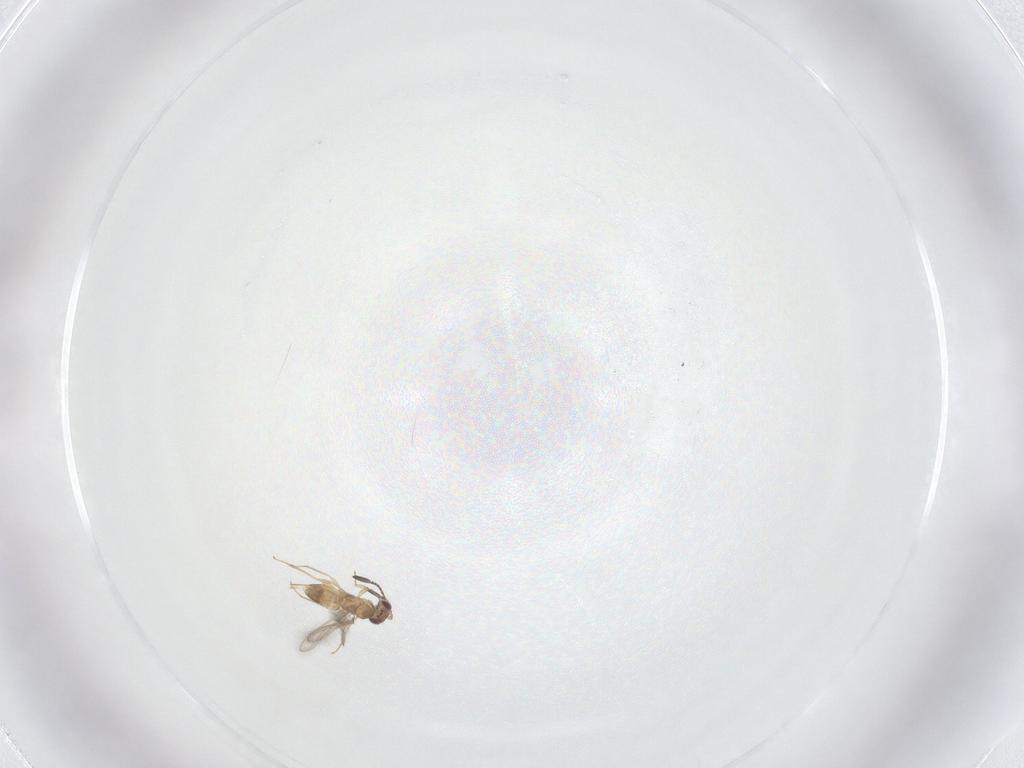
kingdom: Animalia
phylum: Arthropoda
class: Insecta
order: Hymenoptera
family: Mymaridae
